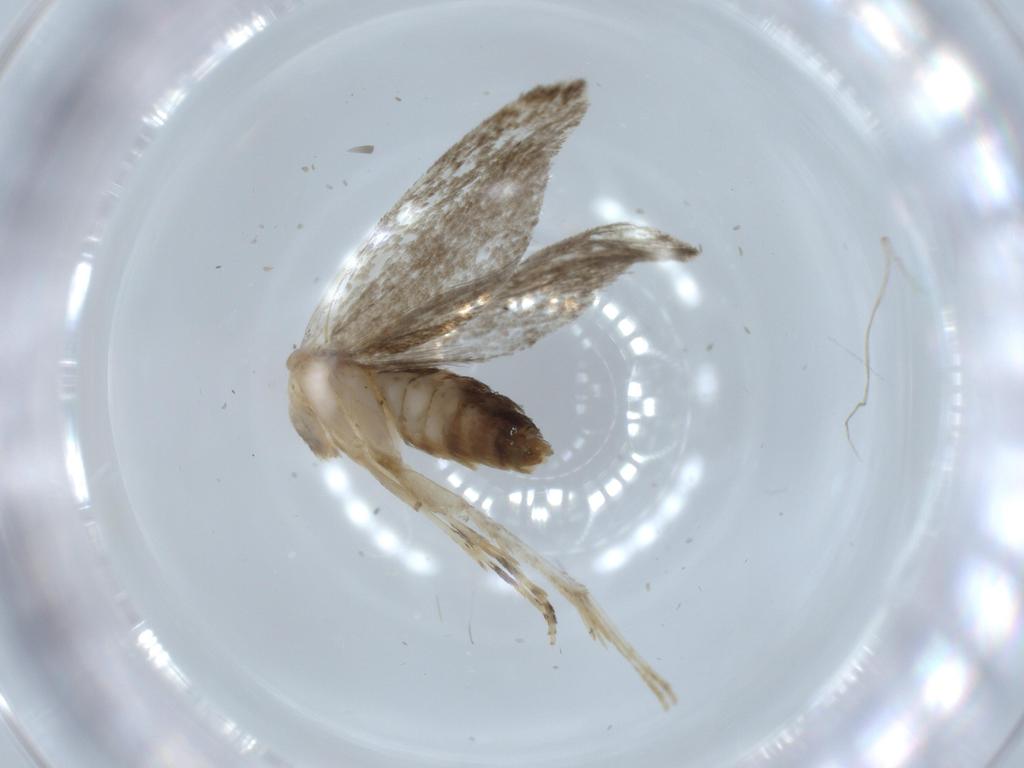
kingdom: Animalia
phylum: Arthropoda
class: Insecta
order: Lepidoptera
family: Tineidae
